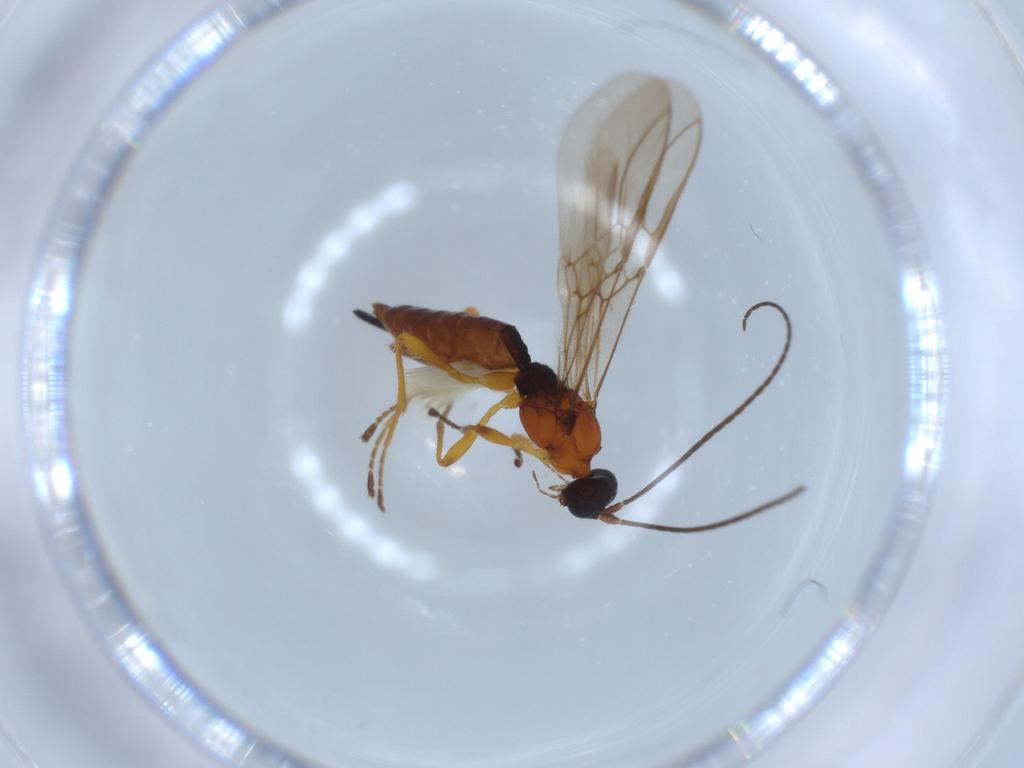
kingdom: Animalia
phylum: Arthropoda
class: Insecta
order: Hymenoptera
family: Braconidae
